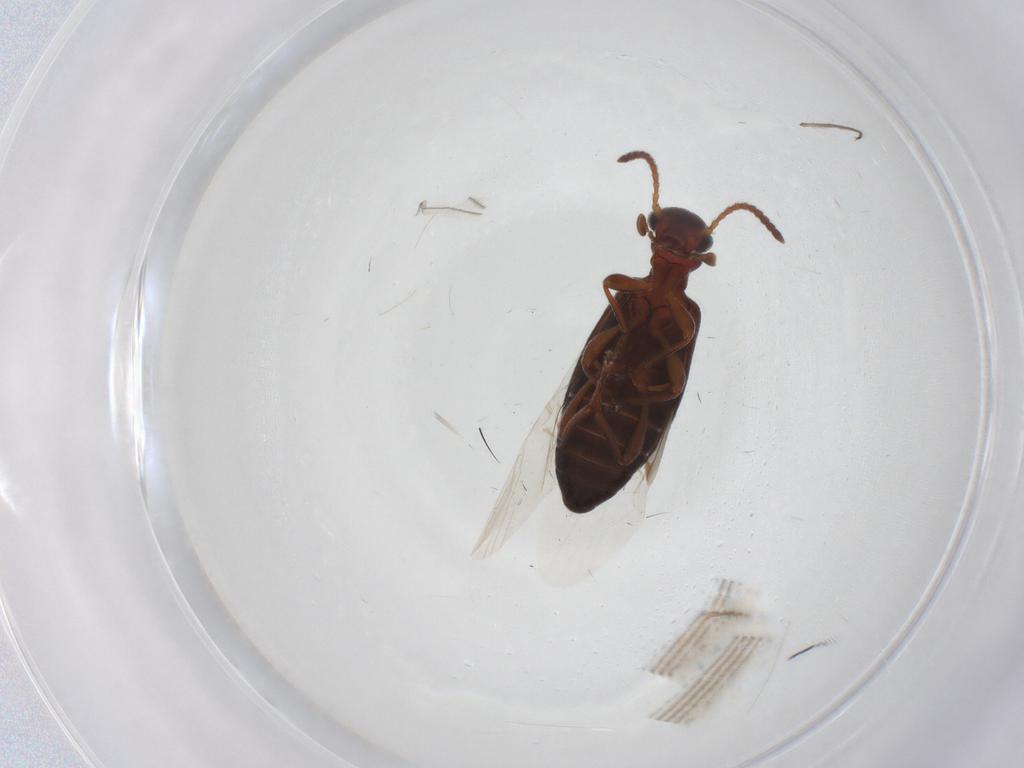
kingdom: Animalia
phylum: Arthropoda
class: Insecta
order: Coleoptera
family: Anthicidae
